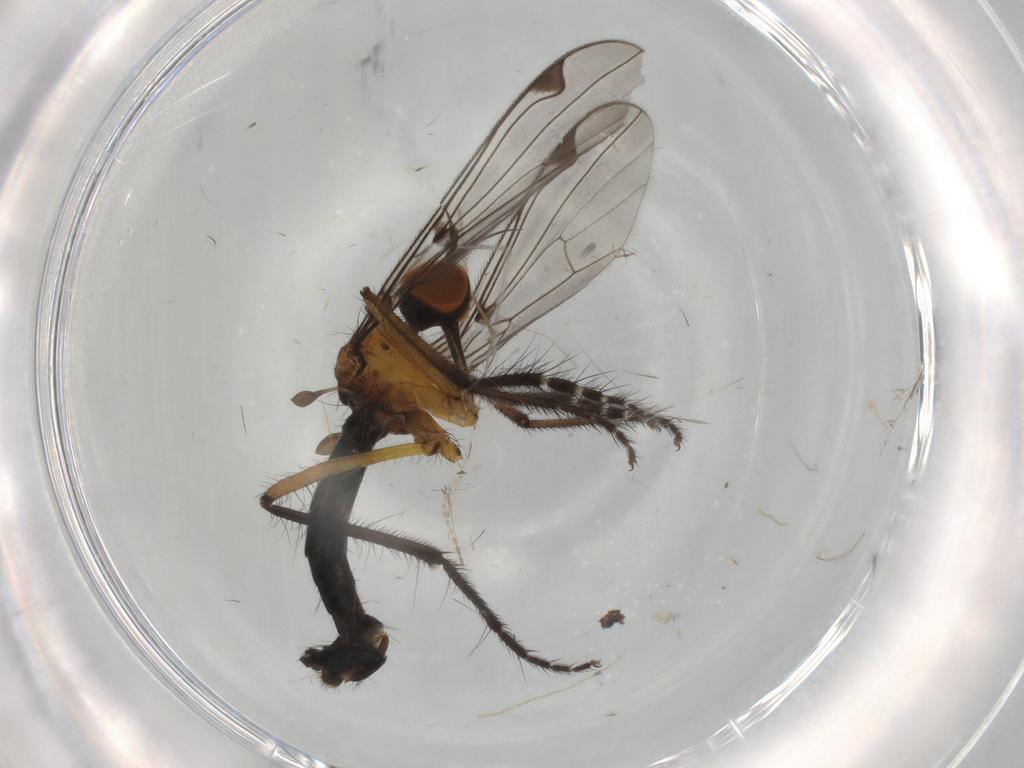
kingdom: Animalia
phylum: Arthropoda
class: Insecta
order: Diptera
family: Empididae
